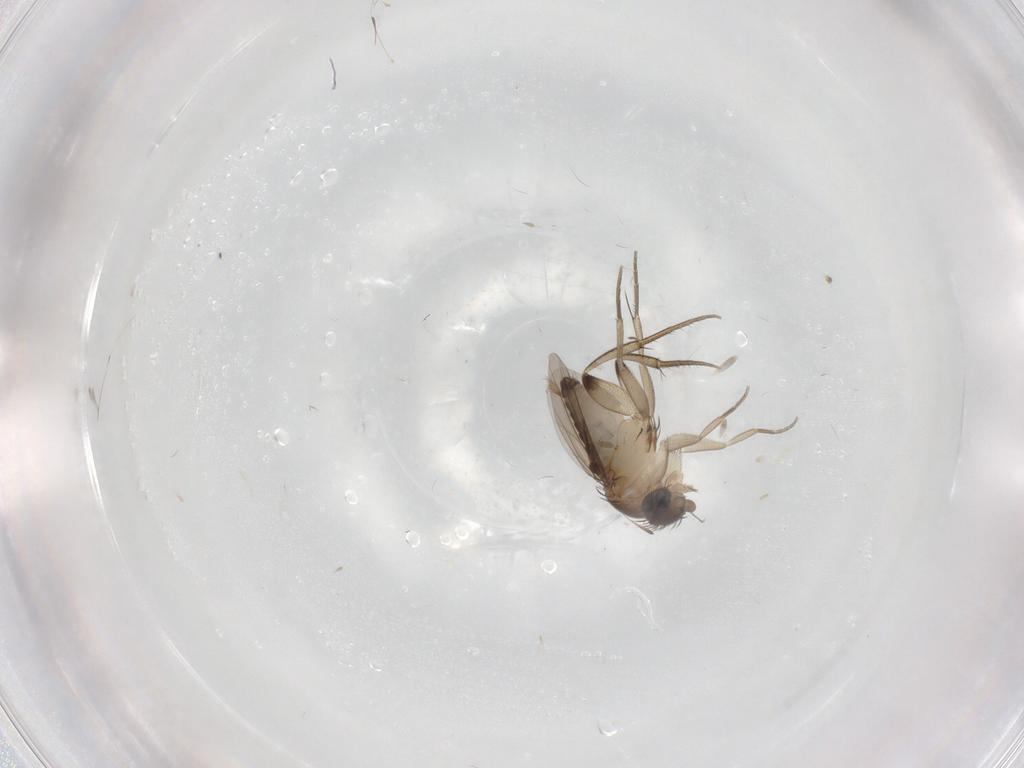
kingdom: Animalia
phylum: Arthropoda
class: Insecta
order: Diptera
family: Phoridae
